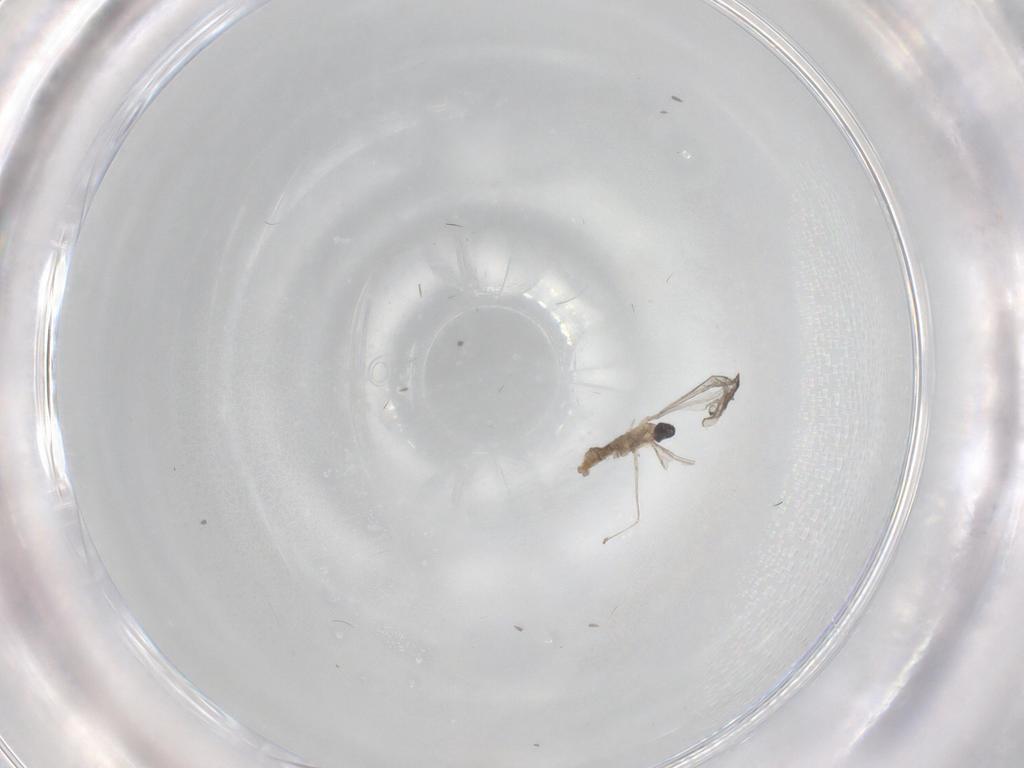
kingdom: Animalia
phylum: Arthropoda
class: Insecta
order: Diptera
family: Cecidomyiidae
